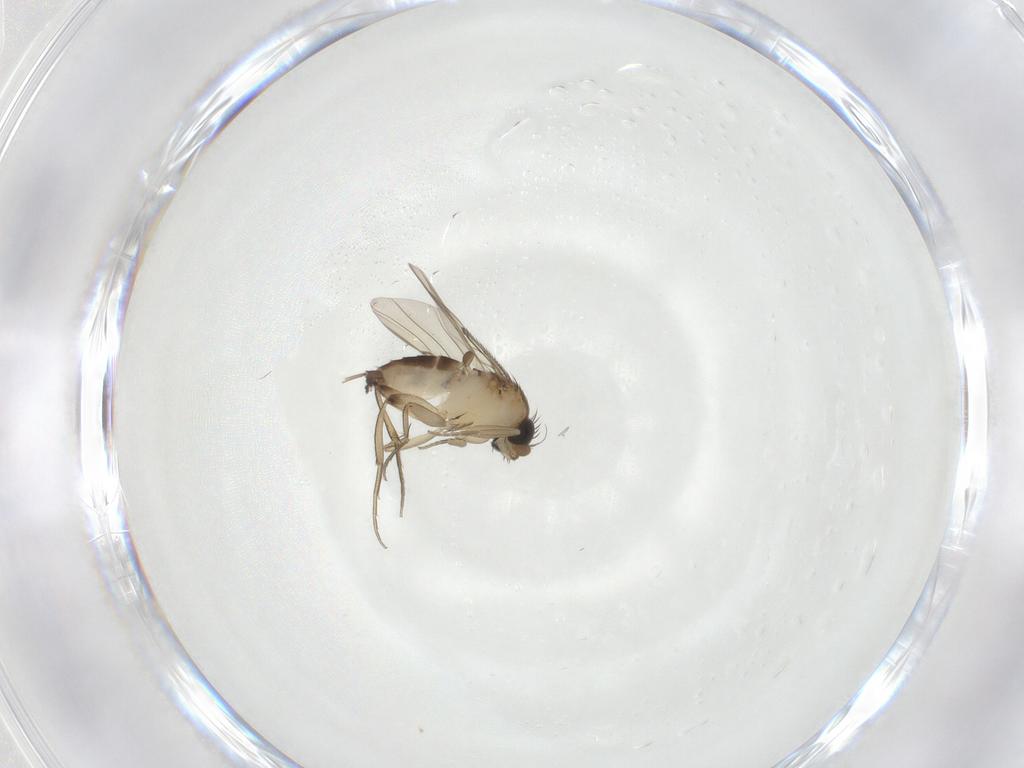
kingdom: Animalia
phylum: Arthropoda
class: Insecta
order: Diptera
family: Phoridae
